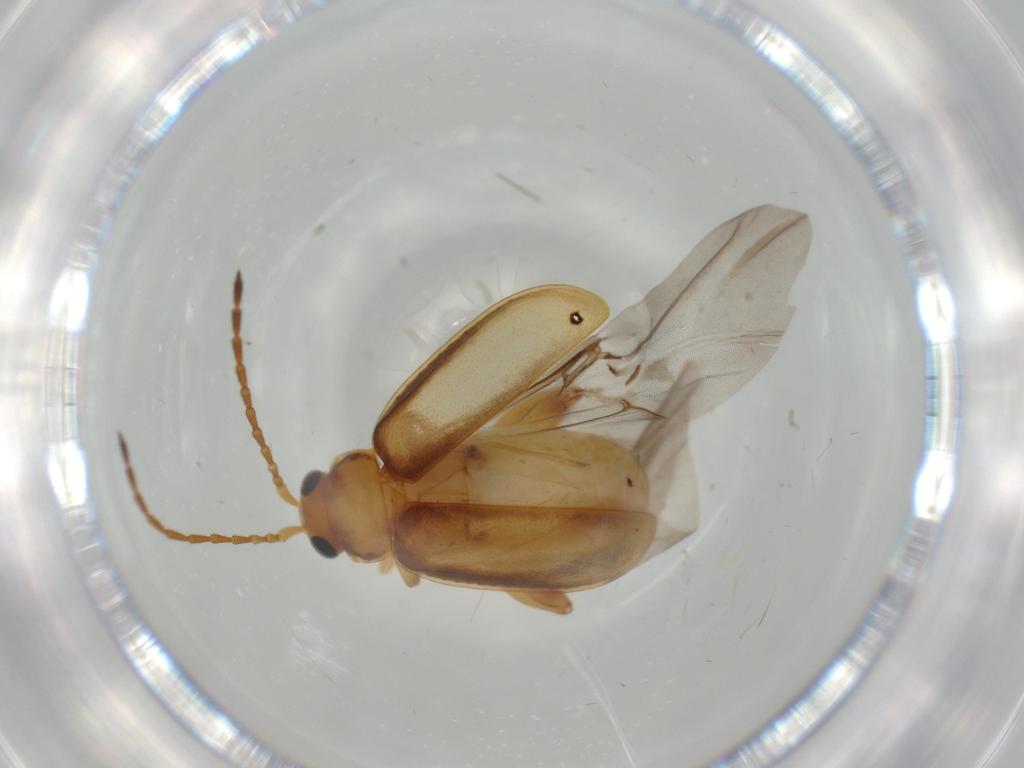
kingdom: Animalia
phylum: Arthropoda
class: Insecta
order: Coleoptera
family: Chrysomelidae
